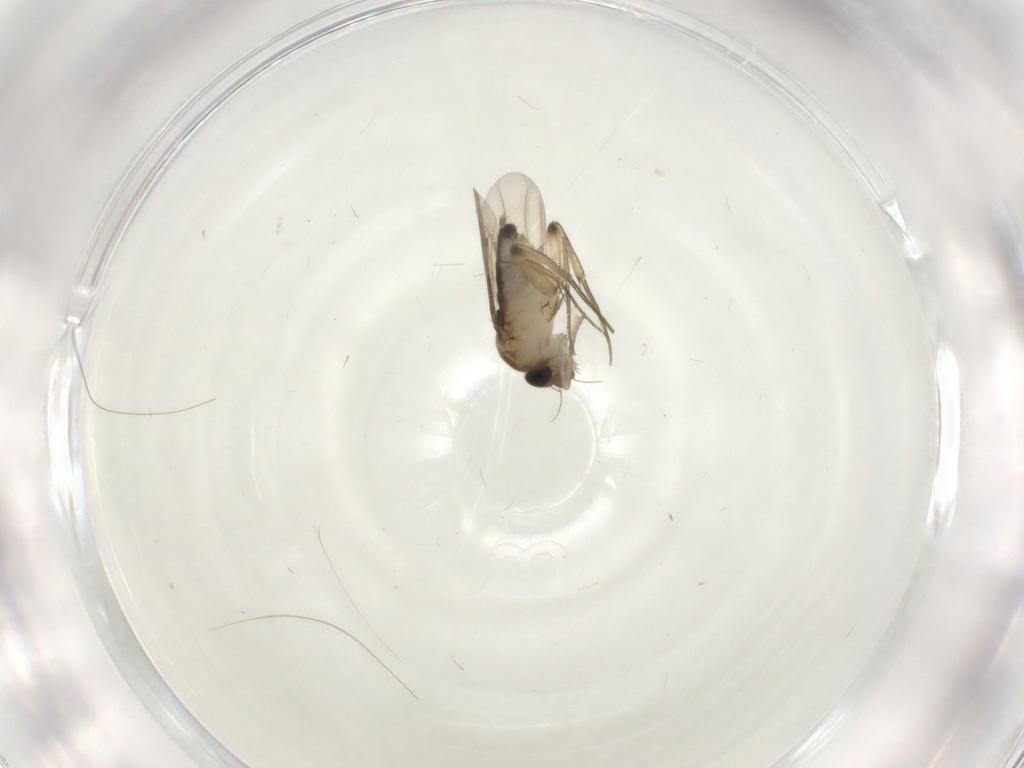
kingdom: Animalia
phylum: Arthropoda
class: Insecta
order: Diptera
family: Phoridae
